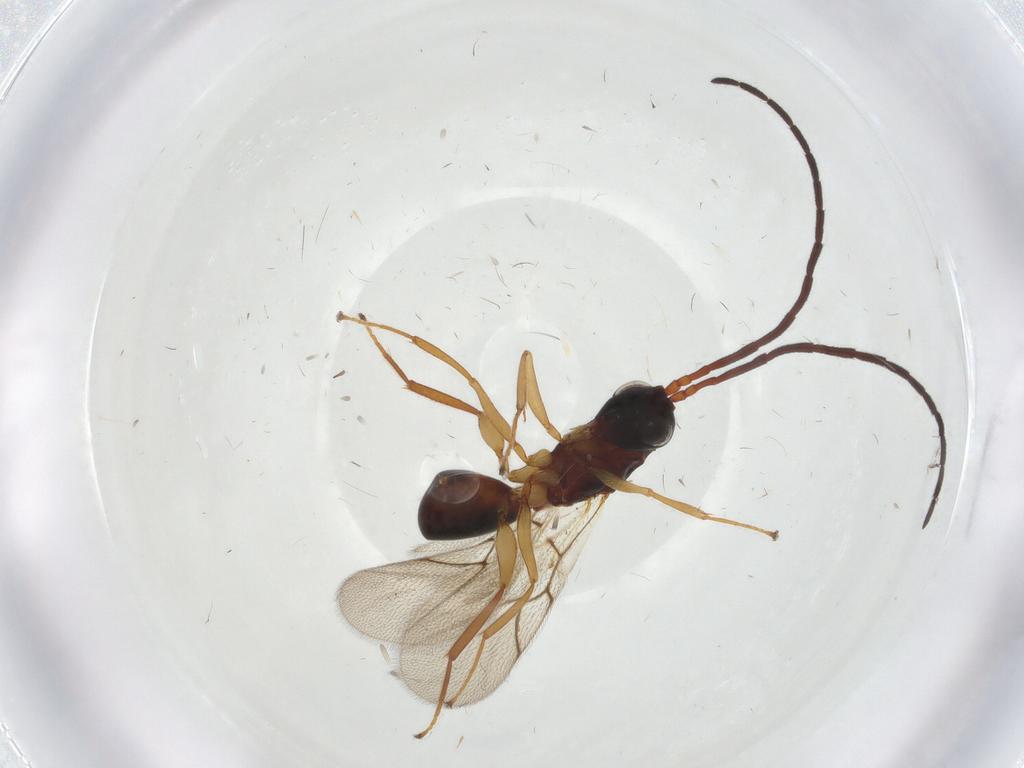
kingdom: Animalia
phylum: Arthropoda
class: Insecta
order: Hymenoptera
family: Figitidae
